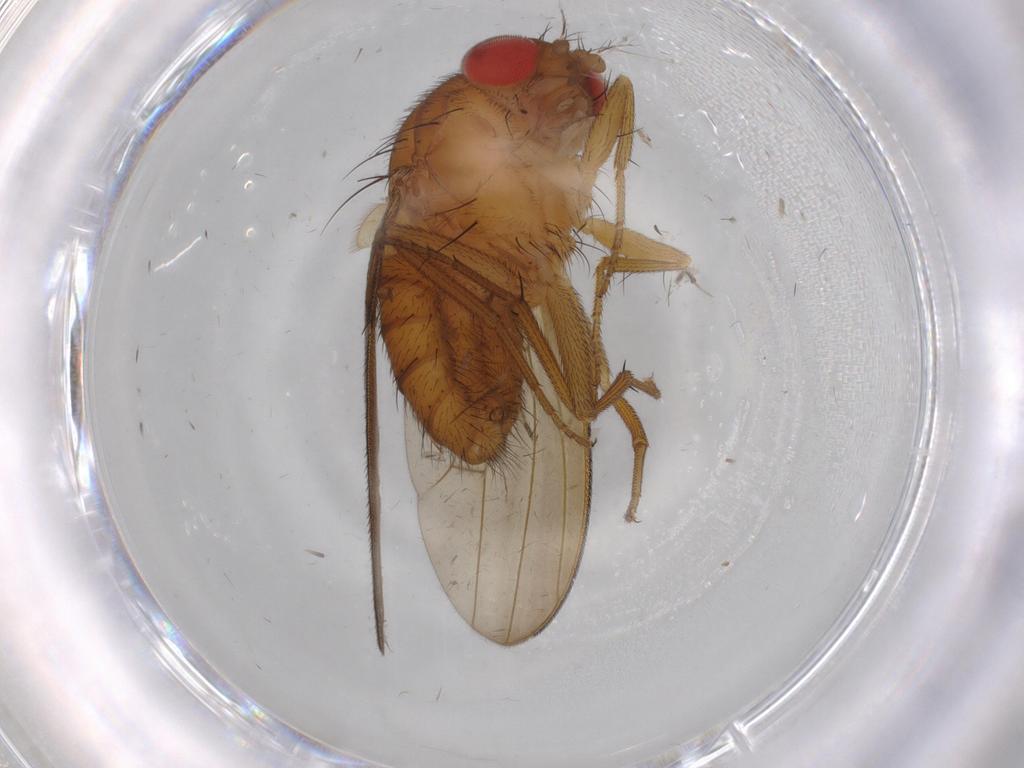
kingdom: Animalia
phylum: Arthropoda
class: Insecta
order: Diptera
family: Drosophilidae
